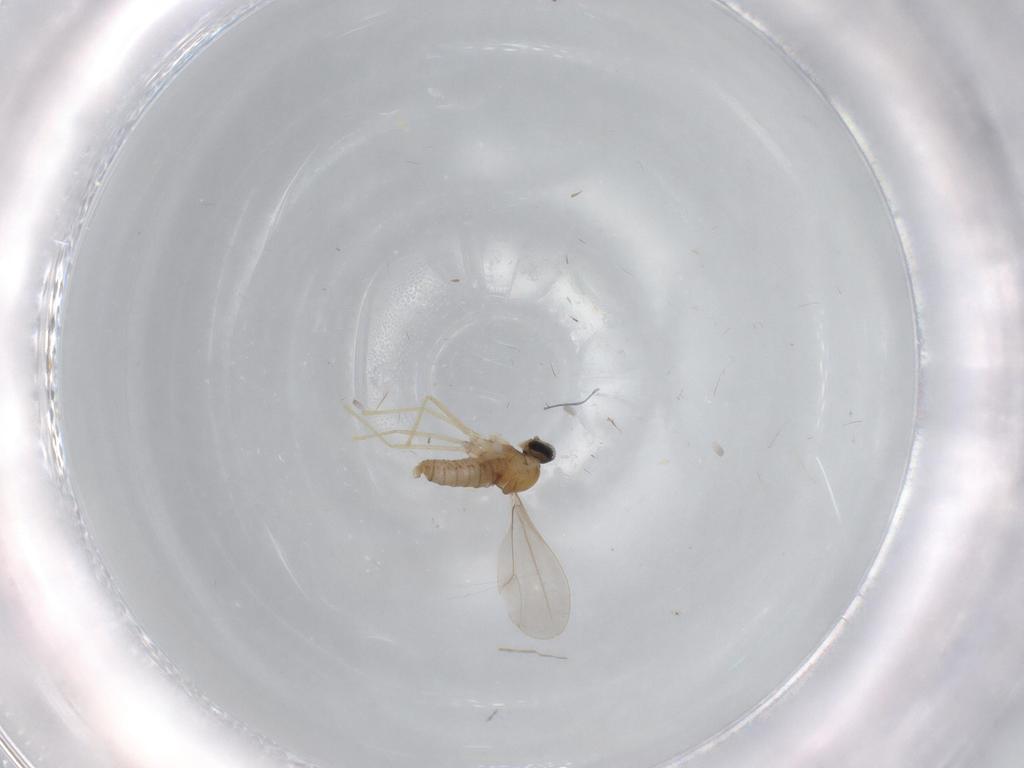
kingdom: Animalia
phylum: Arthropoda
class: Insecta
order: Diptera
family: Cecidomyiidae
